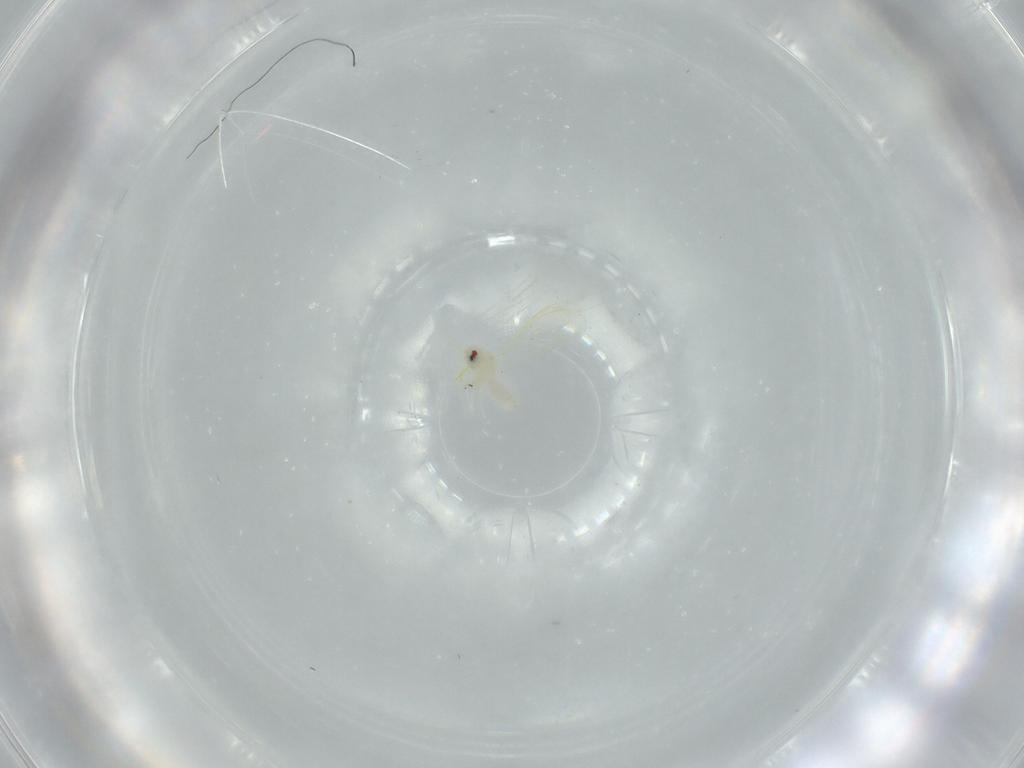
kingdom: Animalia
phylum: Arthropoda
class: Insecta
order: Hemiptera
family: Aleyrodidae
